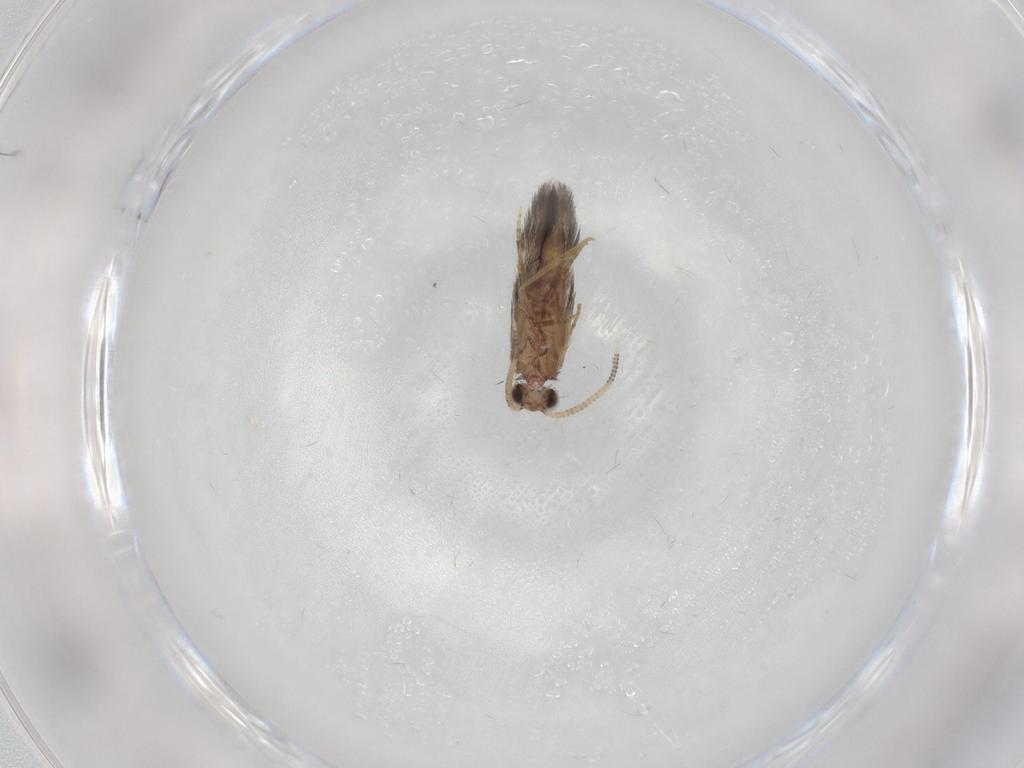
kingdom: Animalia
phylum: Arthropoda
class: Insecta
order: Trichoptera
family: Hydroptilidae
